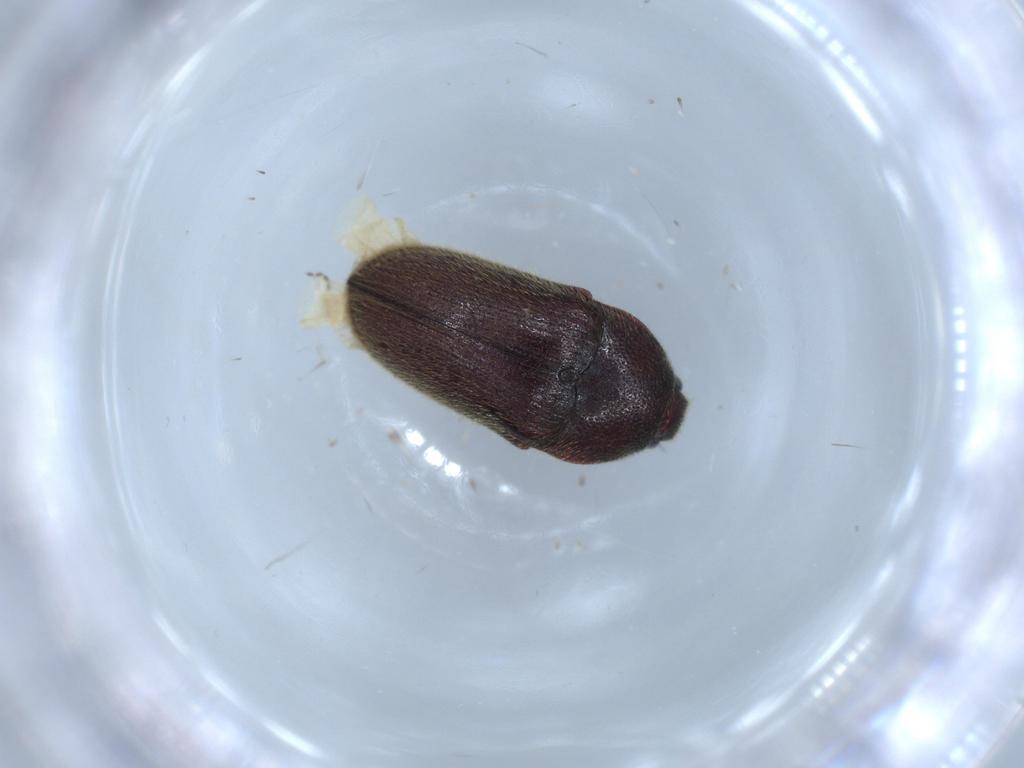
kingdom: Animalia
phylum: Arthropoda
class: Insecta
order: Coleoptera
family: Throscidae
